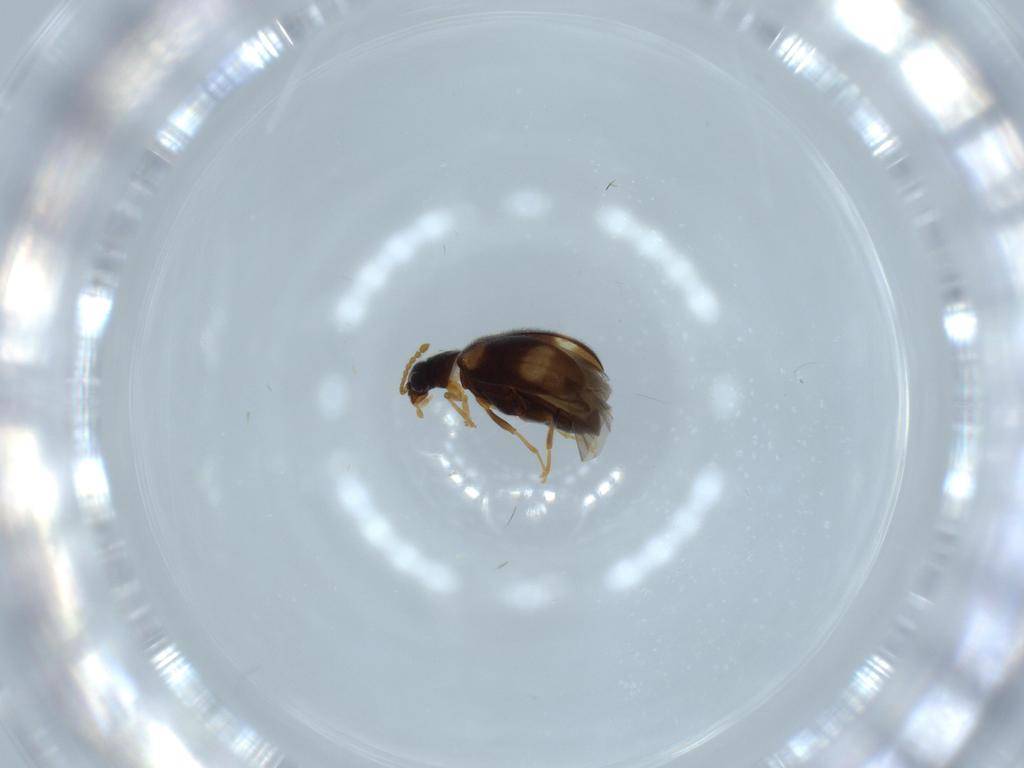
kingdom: Animalia
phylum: Arthropoda
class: Insecta
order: Coleoptera
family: Aderidae
